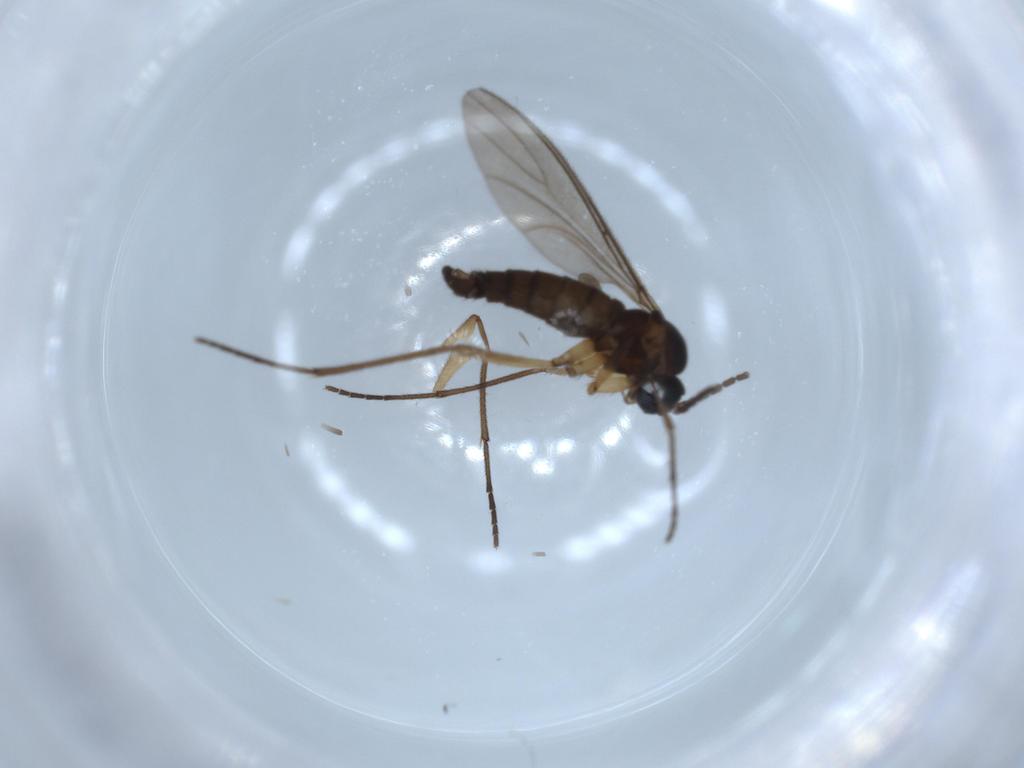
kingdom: Animalia
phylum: Arthropoda
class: Insecta
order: Diptera
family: Sciaridae
